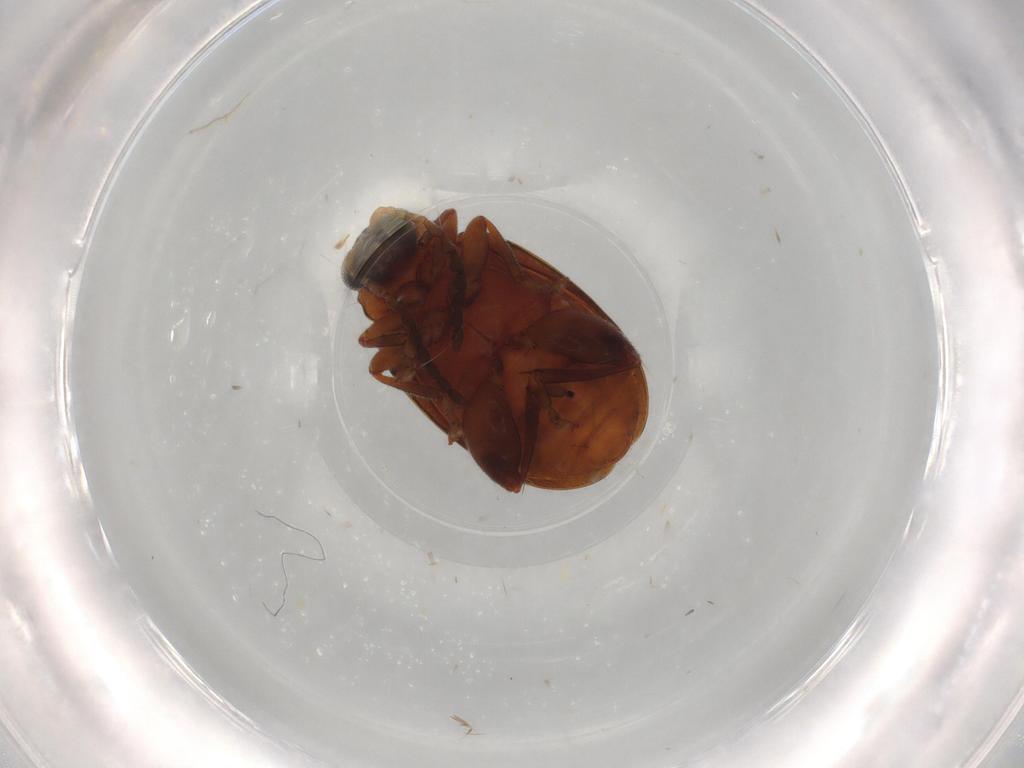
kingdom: Animalia
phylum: Arthropoda
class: Insecta
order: Coleoptera
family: Chrysomelidae
